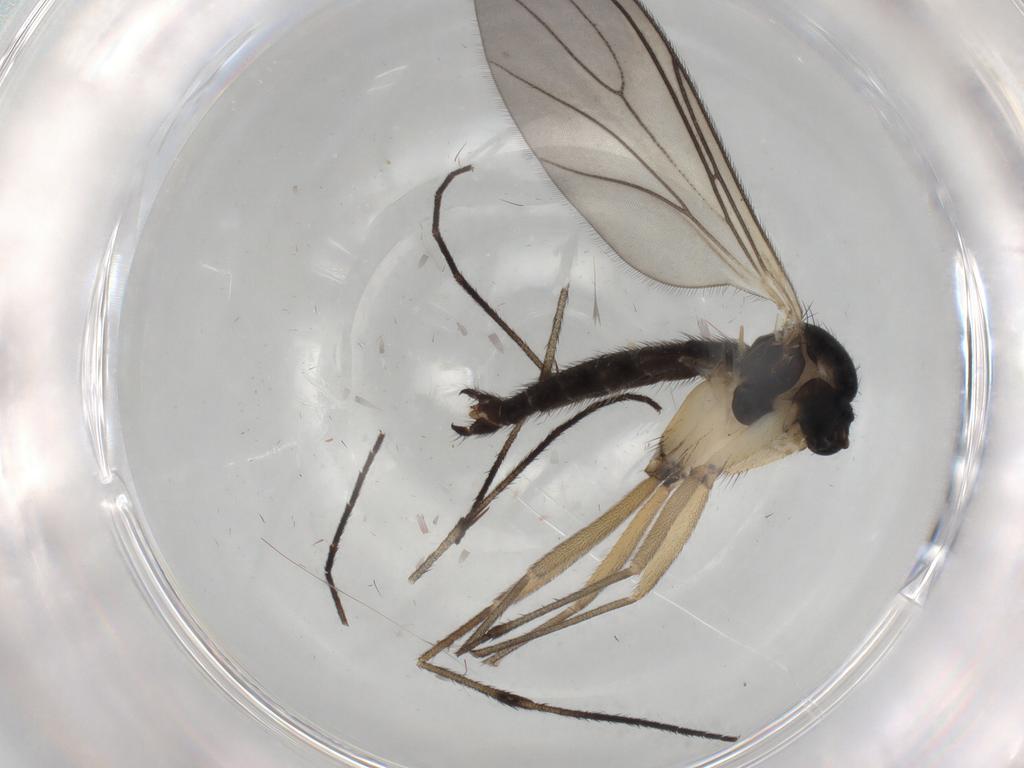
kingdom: Animalia
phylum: Arthropoda
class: Insecta
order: Diptera
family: Sciaridae
